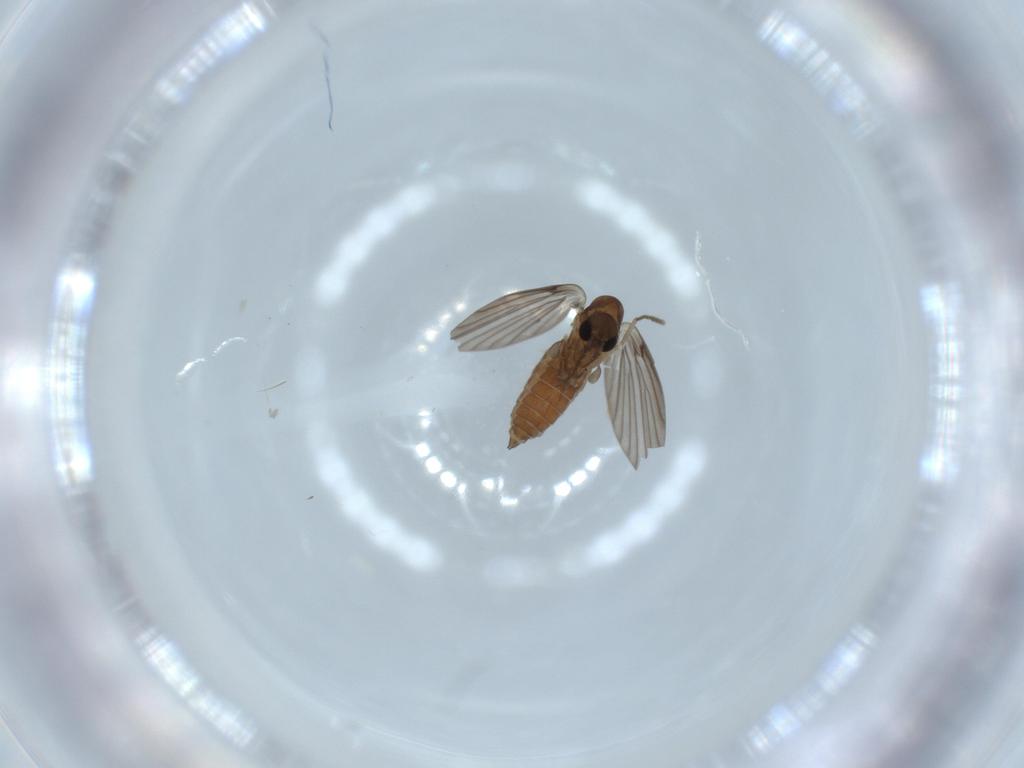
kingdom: Animalia
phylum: Arthropoda
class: Insecta
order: Diptera
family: Psychodidae
